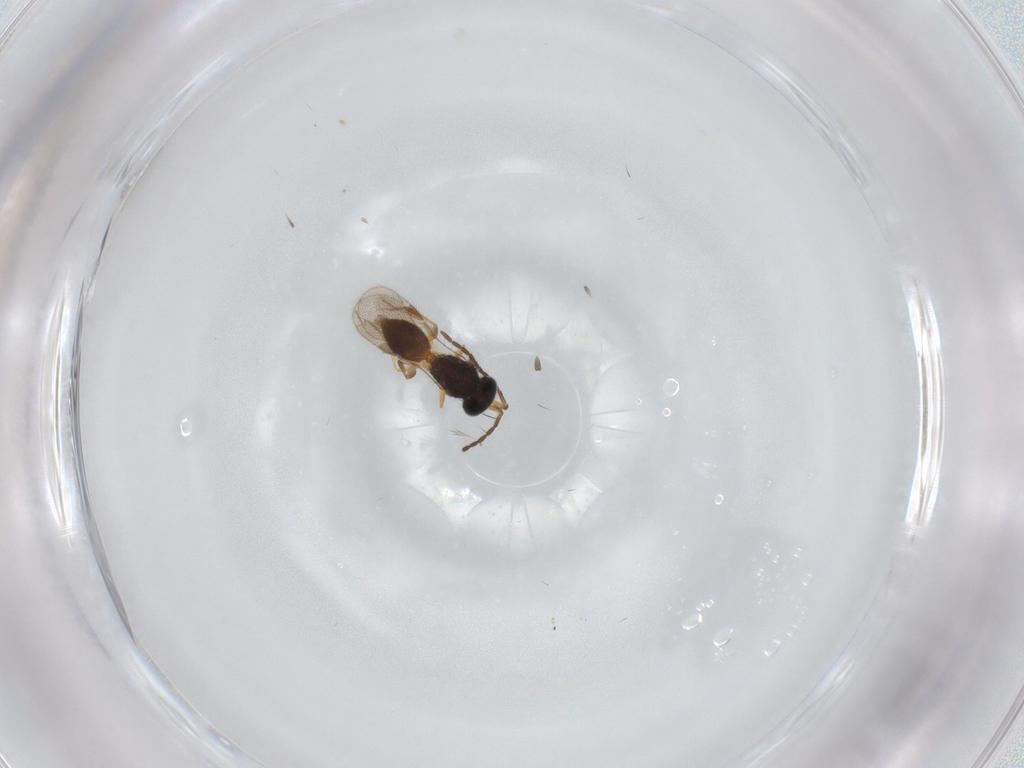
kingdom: Animalia
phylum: Arthropoda
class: Insecta
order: Hymenoptera
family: Megaspilidae
